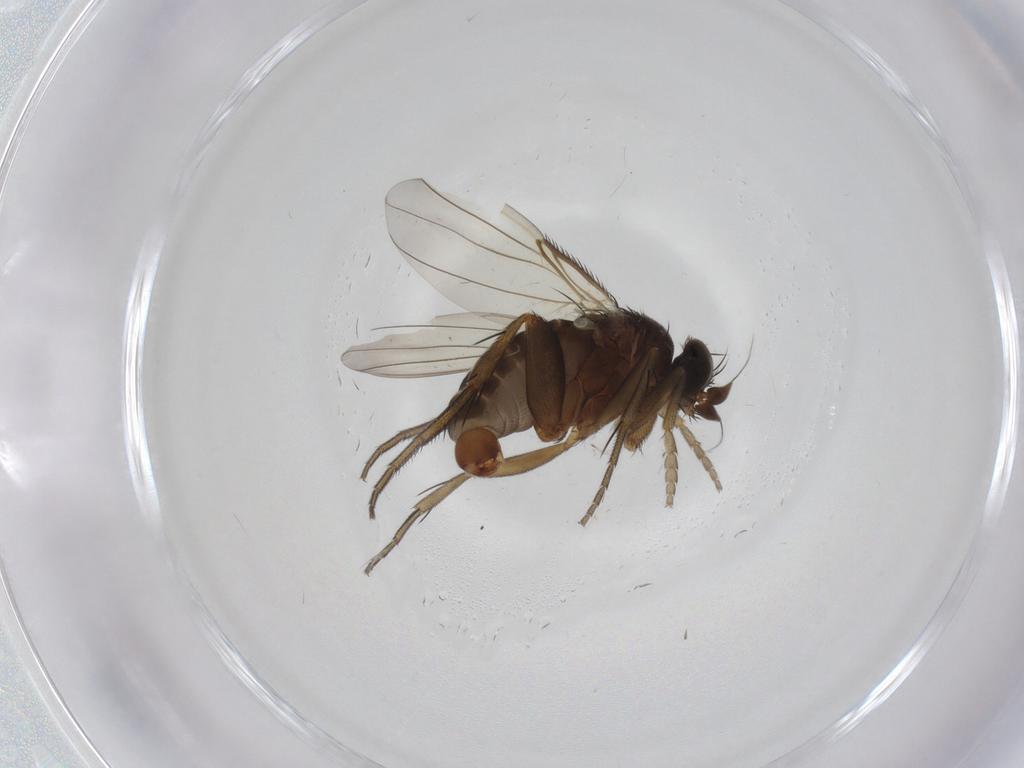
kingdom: Animalia
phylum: Arthropoda
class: Insecta
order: Diptera
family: Phoridae
